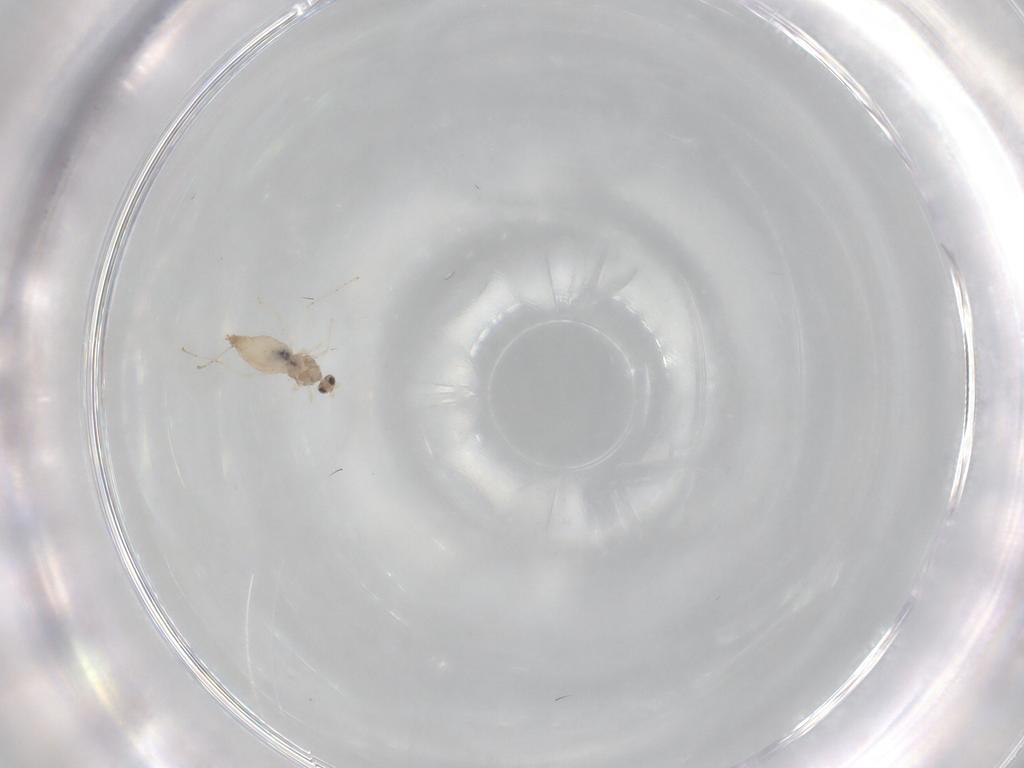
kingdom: Animalia
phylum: Arthropoda
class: Insecta
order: Diptera
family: Cecidomyiidae
